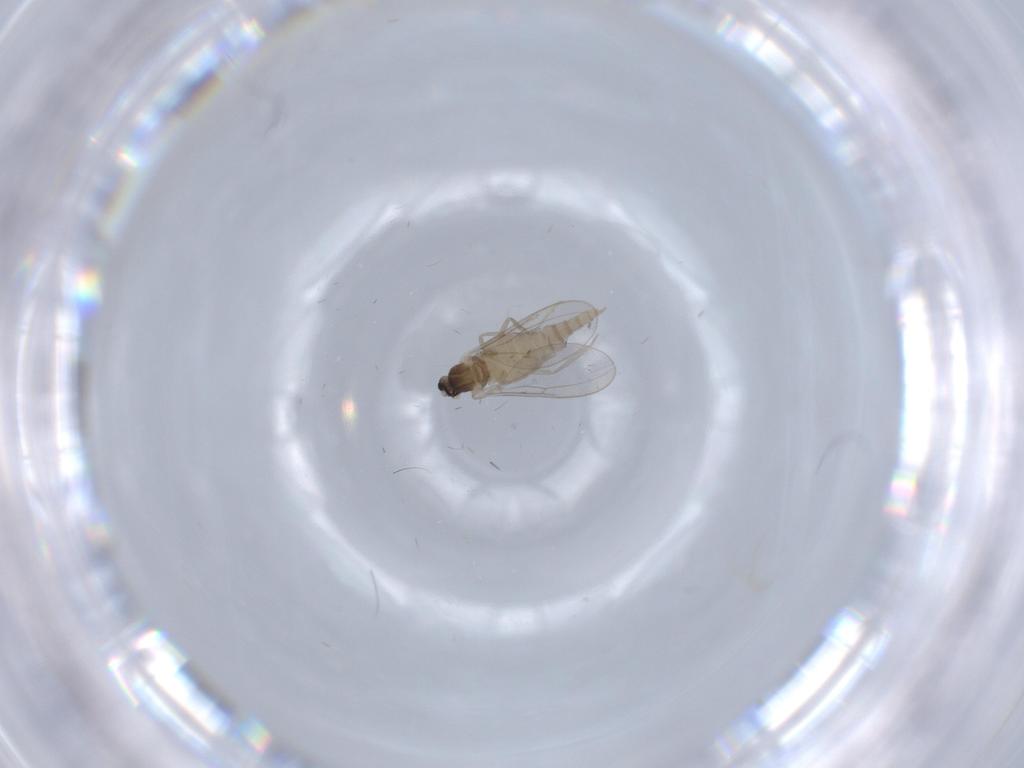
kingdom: Animalia
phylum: Arthropoda
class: Insecta
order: Diptera
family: Cecidomyiidae
